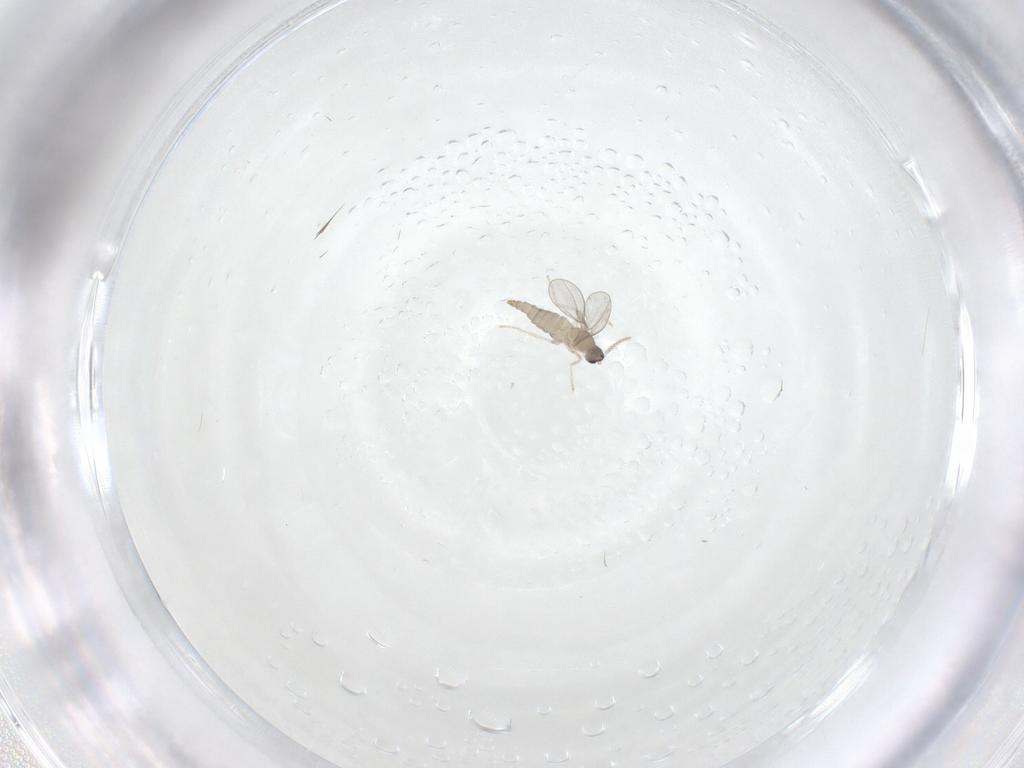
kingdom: Animalia
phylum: Arthropoda
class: Insecta
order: Diptera
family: Cecidomyiidae
